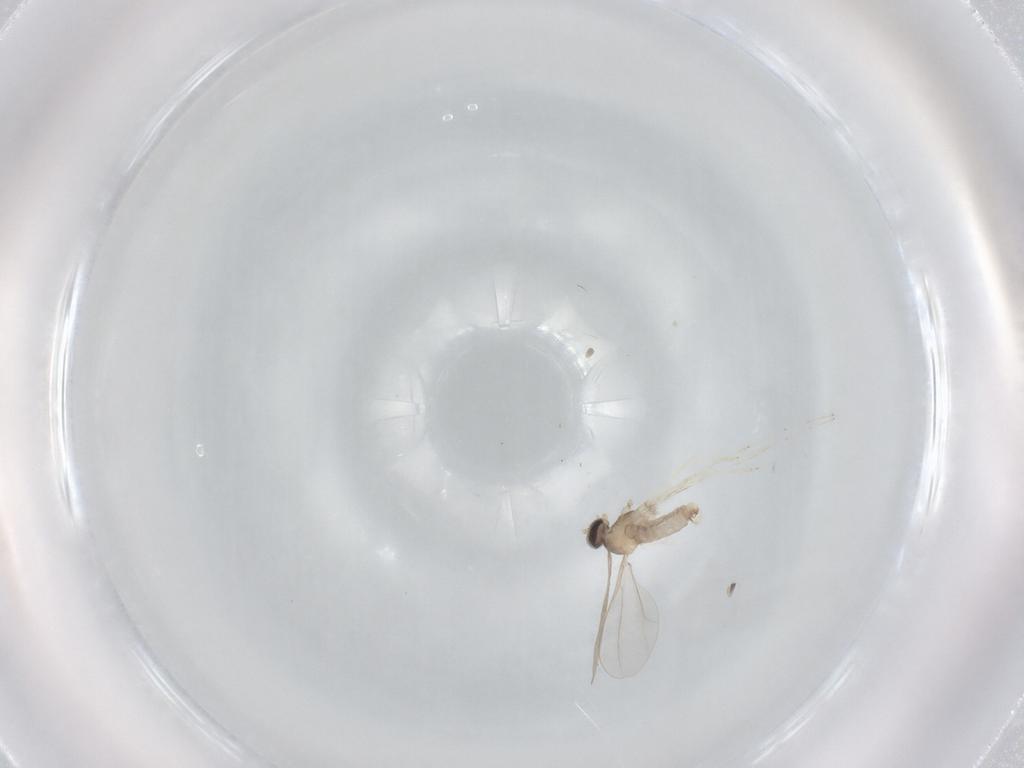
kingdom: Animalia
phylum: Arthropoda
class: Insecta
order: Diptera
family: Cecidomyiidae
